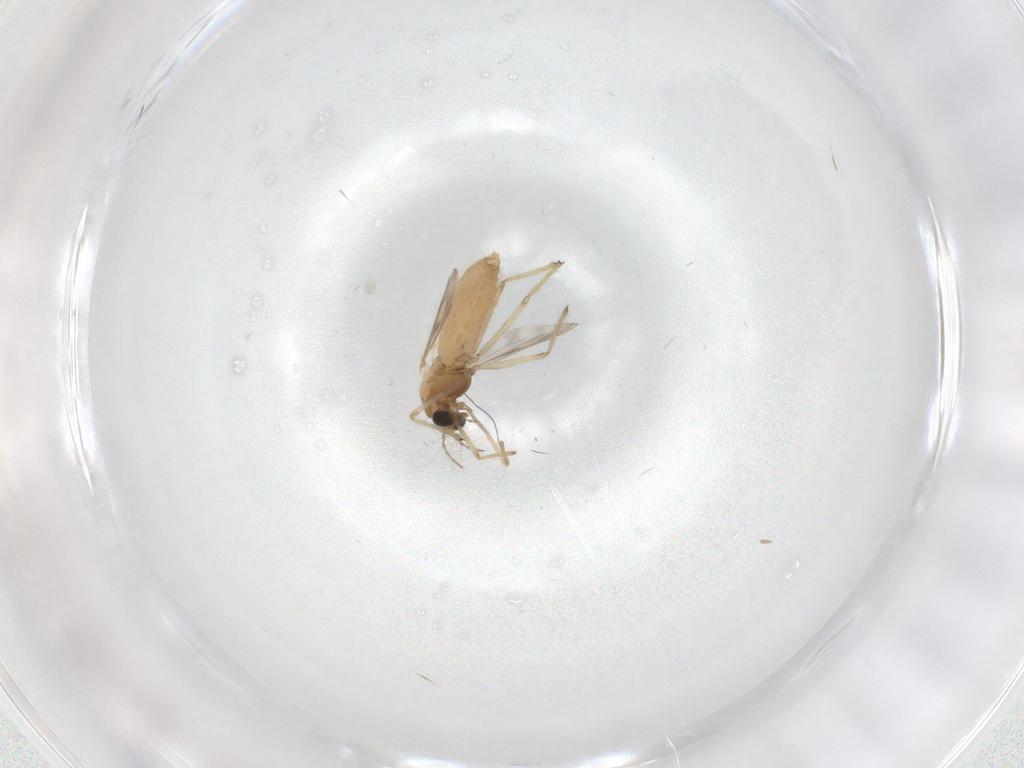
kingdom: Animalia
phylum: Arthropoda
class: Insecta
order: Diptera
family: Chironomidae
